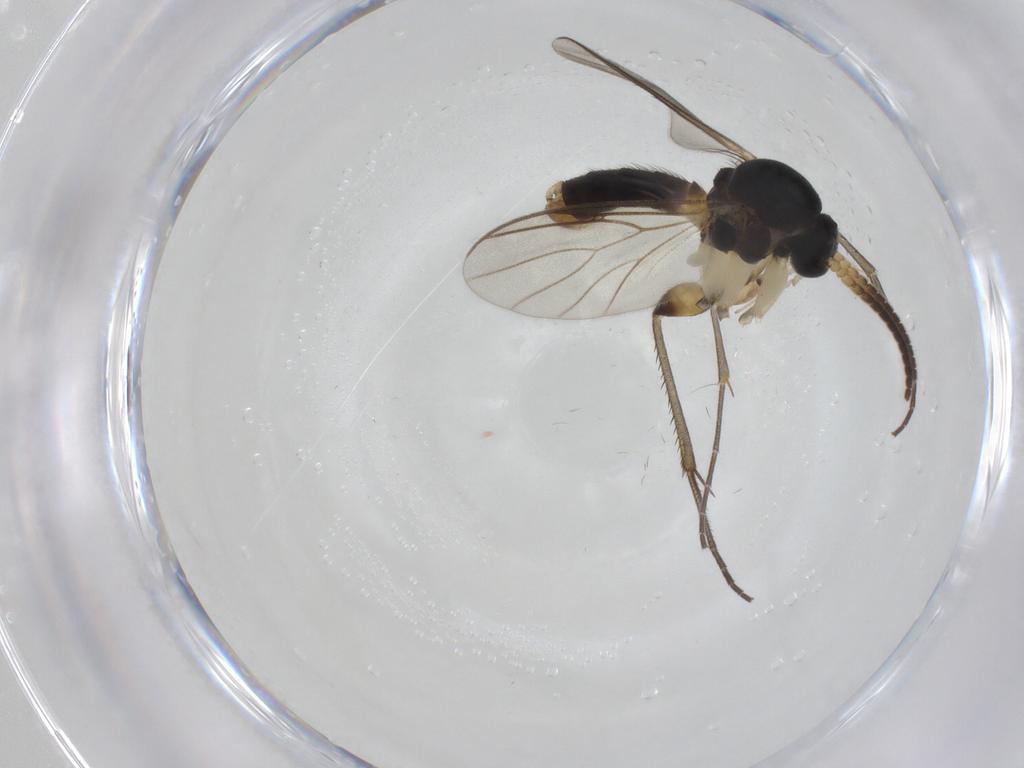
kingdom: Animalia
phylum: Arthropoda
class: Insecta
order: Diptera
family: Mycetophilidae
